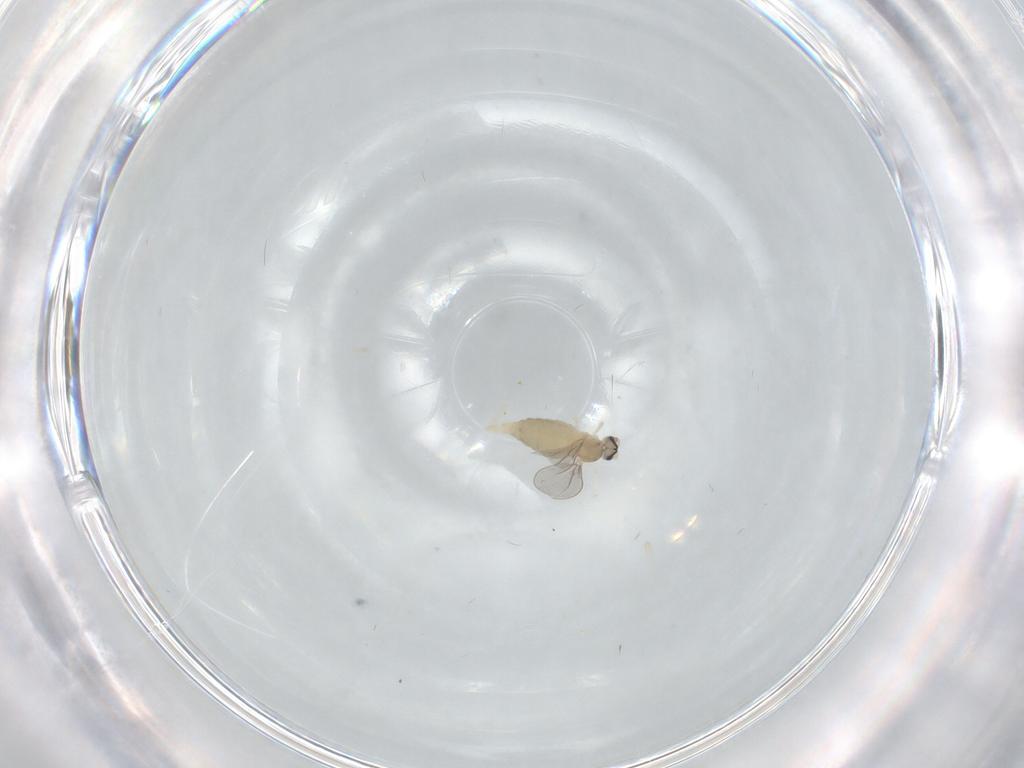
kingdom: Animalia
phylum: Arthropoda
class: Insecta
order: Diptera
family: Cecidomyiidae
